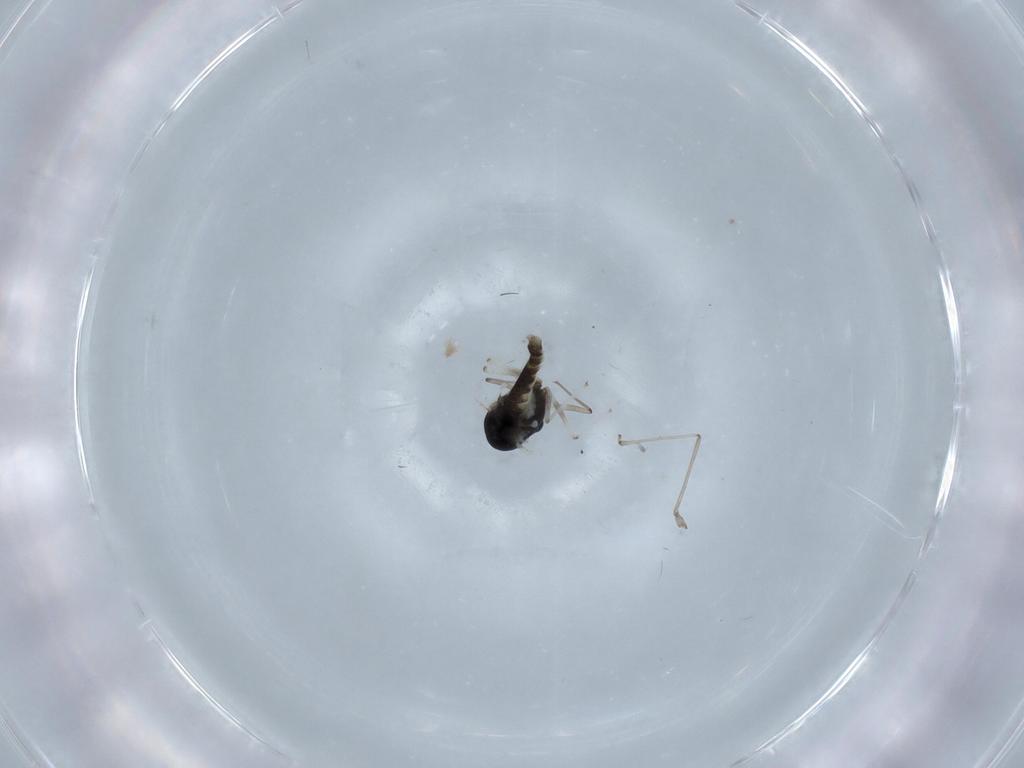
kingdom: Animalia
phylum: Arthropoda
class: Insecta
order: Diptera
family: Chironomidae
